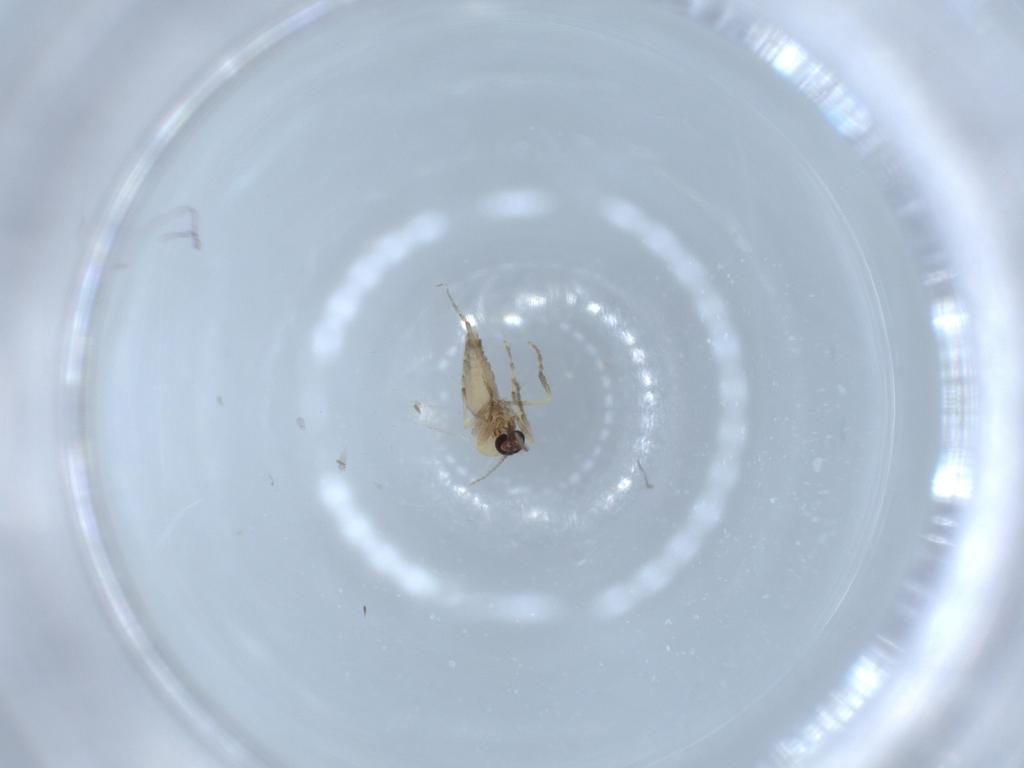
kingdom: Animalia
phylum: Arthropoda
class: Insecta
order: Diptera
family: Ceratopogonidae
